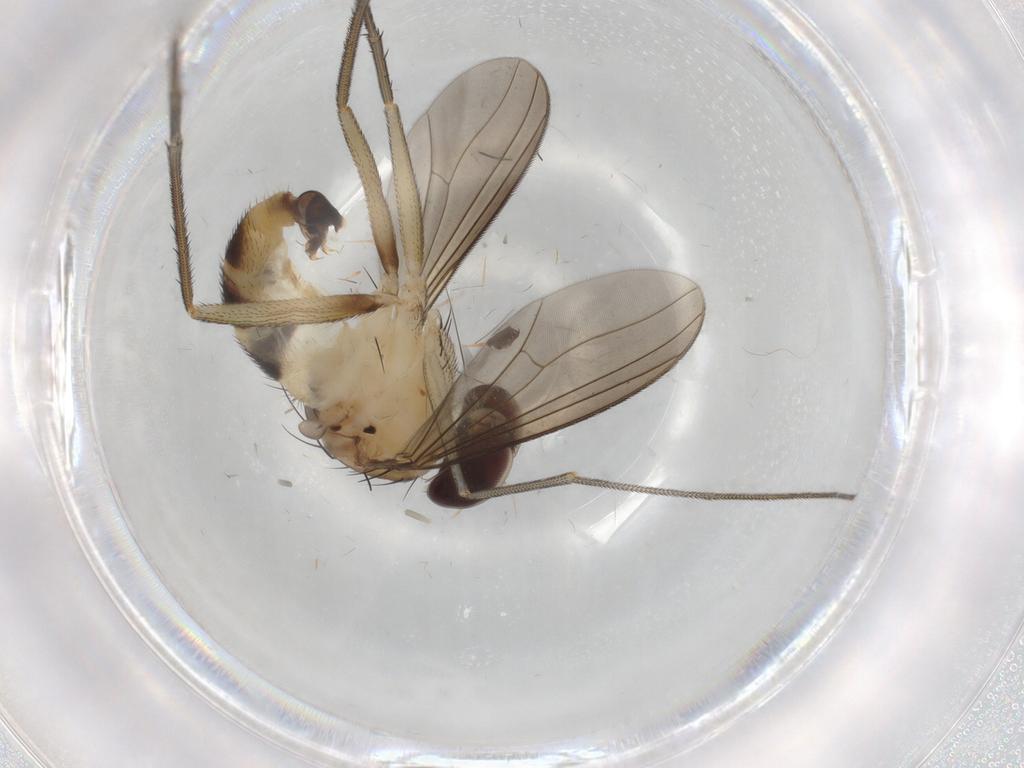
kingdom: Animalia
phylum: Arthropoda
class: Insecta
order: Diptera
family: Dolichopodidae
